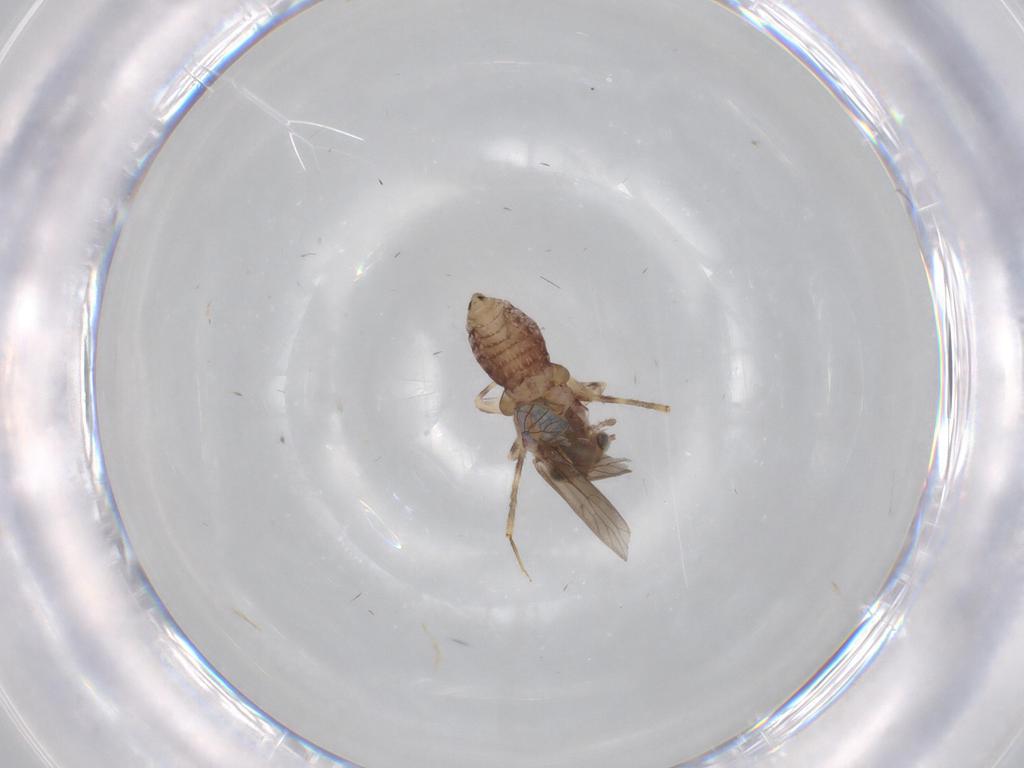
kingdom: Animalia
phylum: Arthropoda
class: Insecta
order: Psocodea
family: Lepidopsocidae
